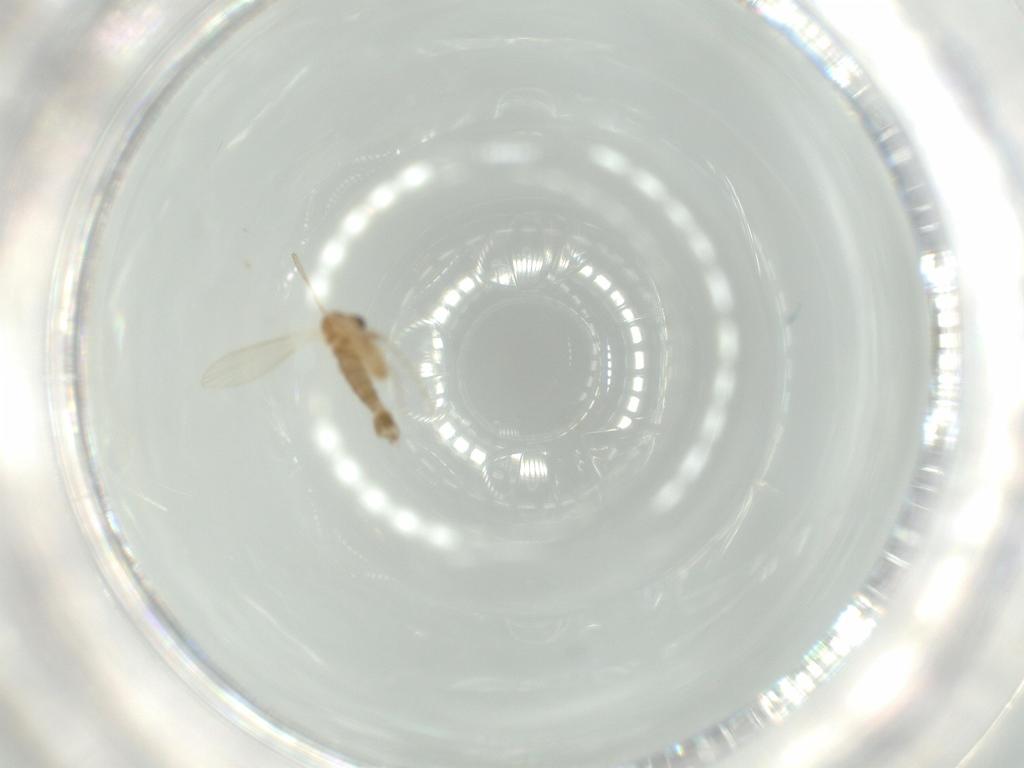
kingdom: Animalia
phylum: Arthropoda
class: Insecta
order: Diptera
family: Psychodidae
